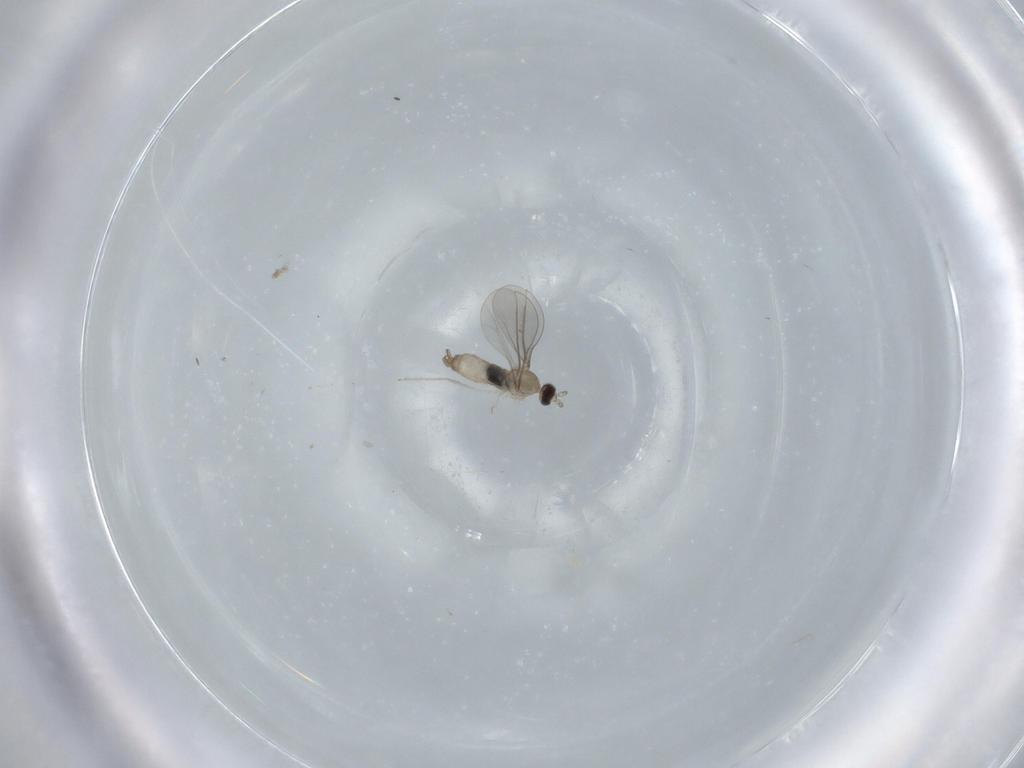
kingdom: Animalia
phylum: Arthropoda
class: Insecta
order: Diptera
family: Cecidomyiidae
